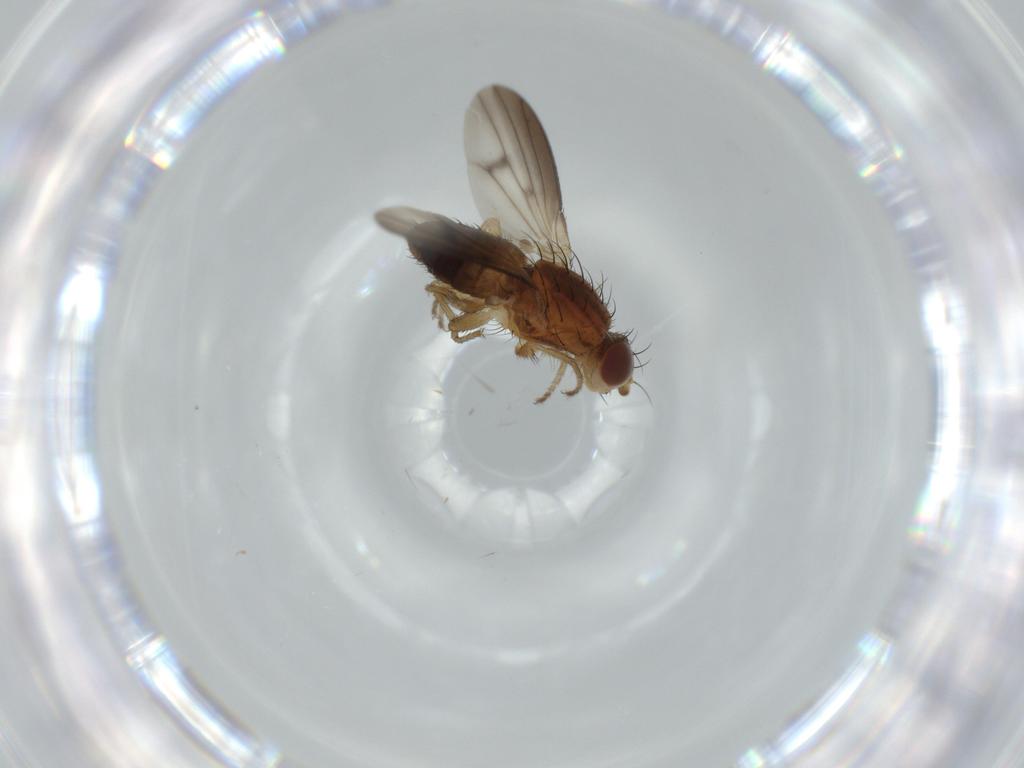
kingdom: Animalia
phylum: Arthropoda
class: Insecta
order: Diptera
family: Heleomyzidae
